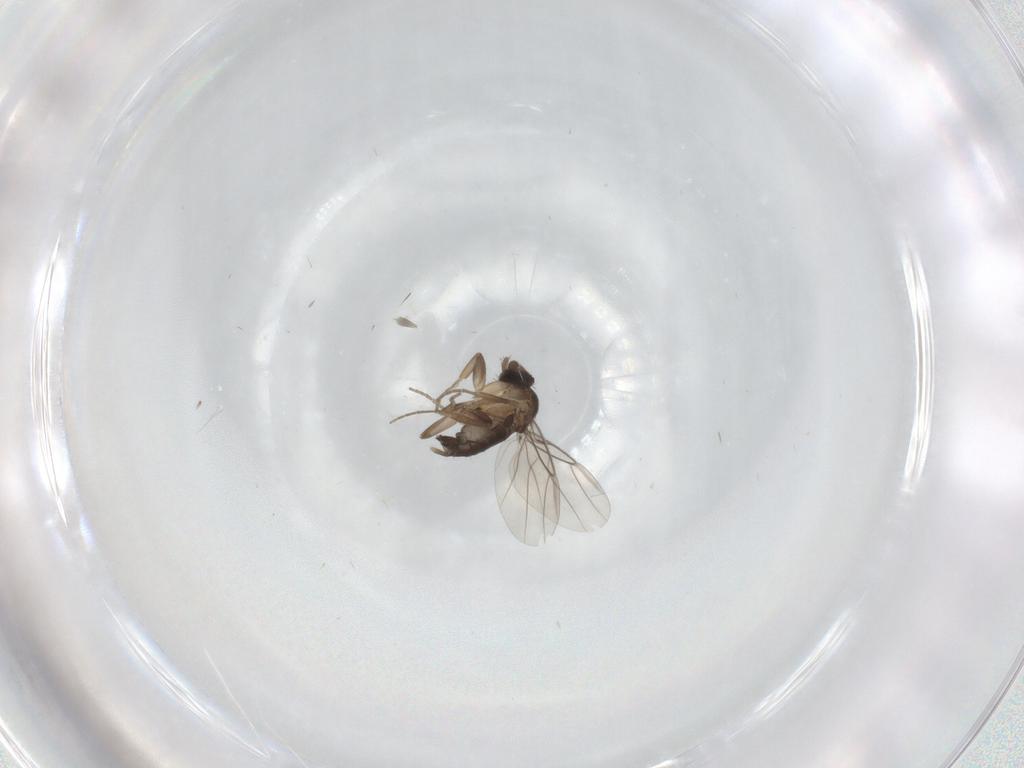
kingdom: Animalia
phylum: Arthropoda
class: Insecta
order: Diptera
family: Phoridae
